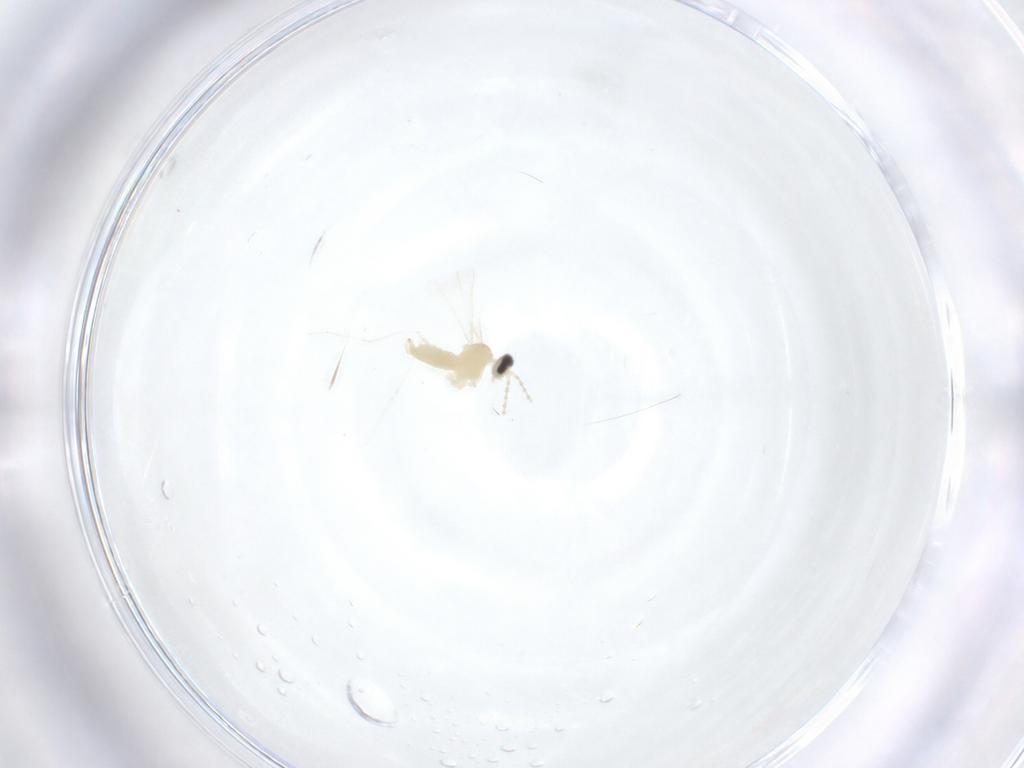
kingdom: Animalia
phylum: Arthropoda
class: Insecta
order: Diptera
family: Cecidomyiidae
